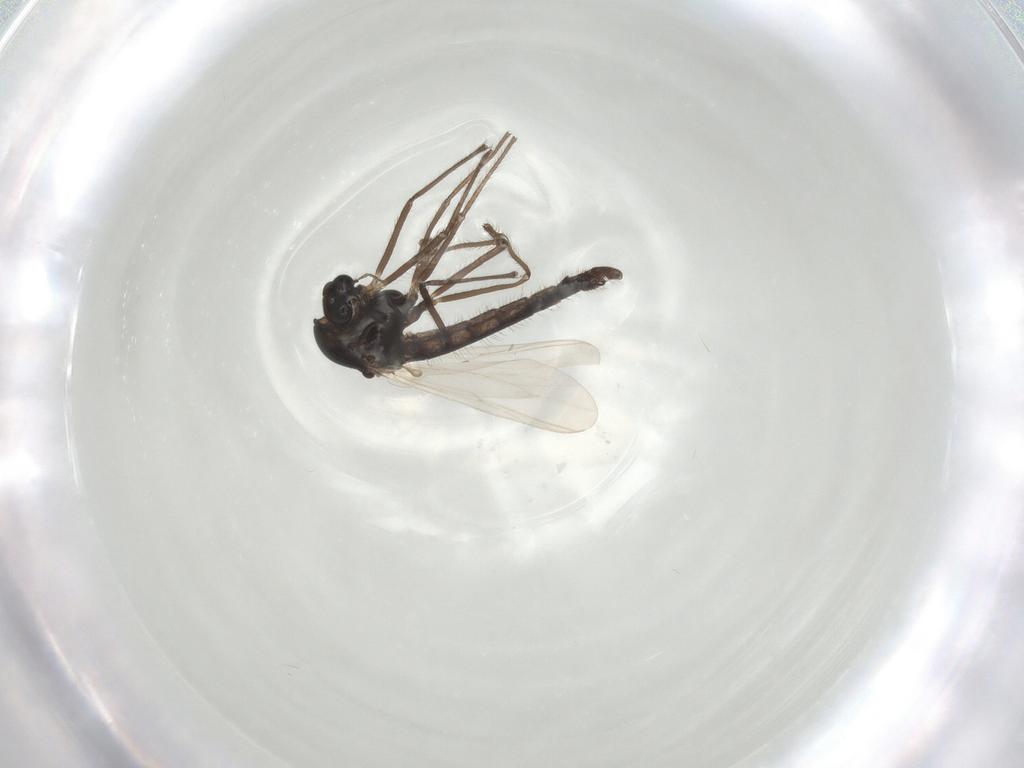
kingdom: Animalia
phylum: Arthropoda
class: Insecta
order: Diptera
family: Chironomidae
